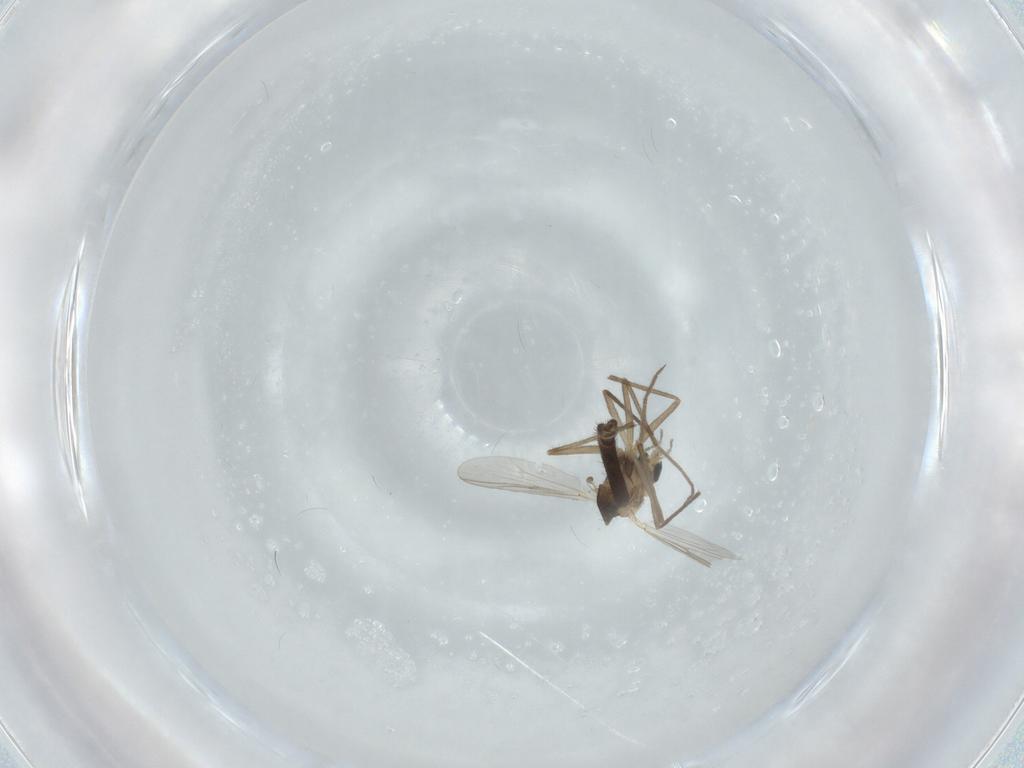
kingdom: Animalia
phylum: Arthropoda
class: Insecta
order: Diptera
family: Chironomidae
